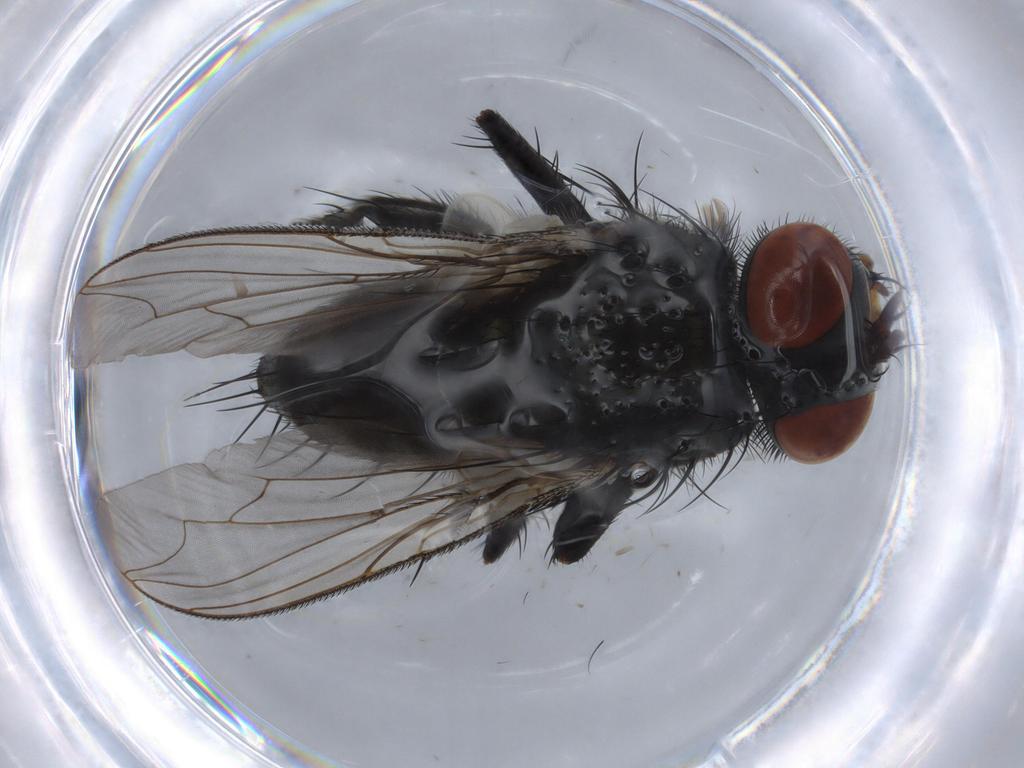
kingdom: Animalia
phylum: Arthropoda
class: Insecta
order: Diptera
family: Sarcophagidae
